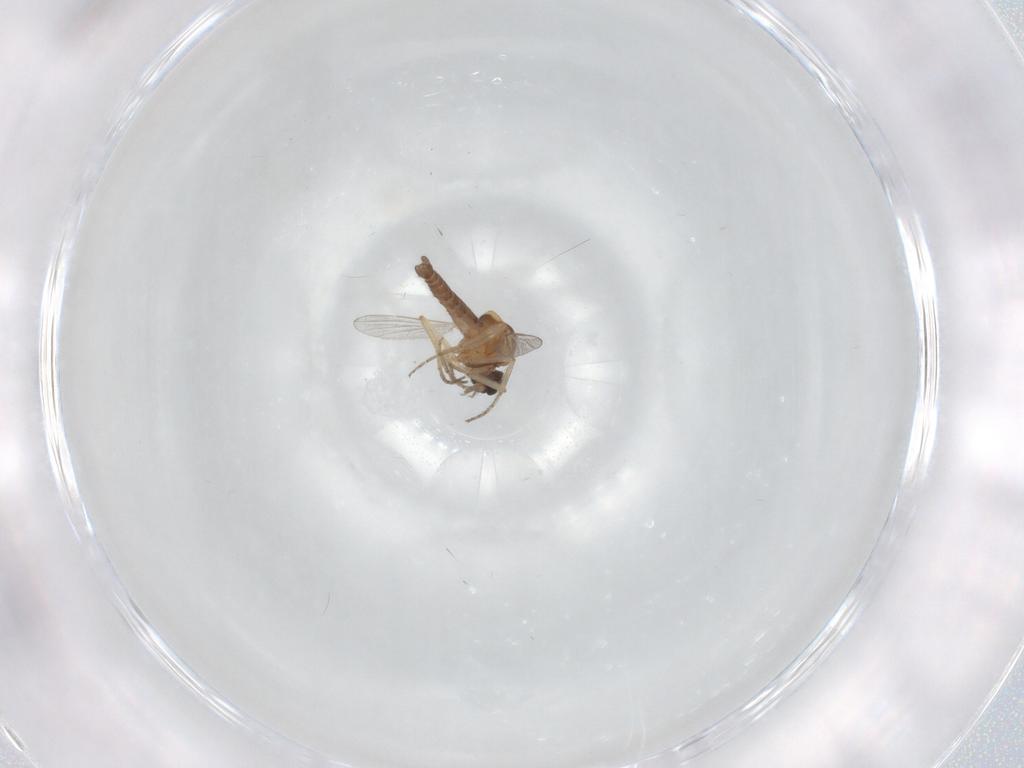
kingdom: Animalia
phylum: Arthropoda
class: Insecta
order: Diptera
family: Ceratopogonidae
